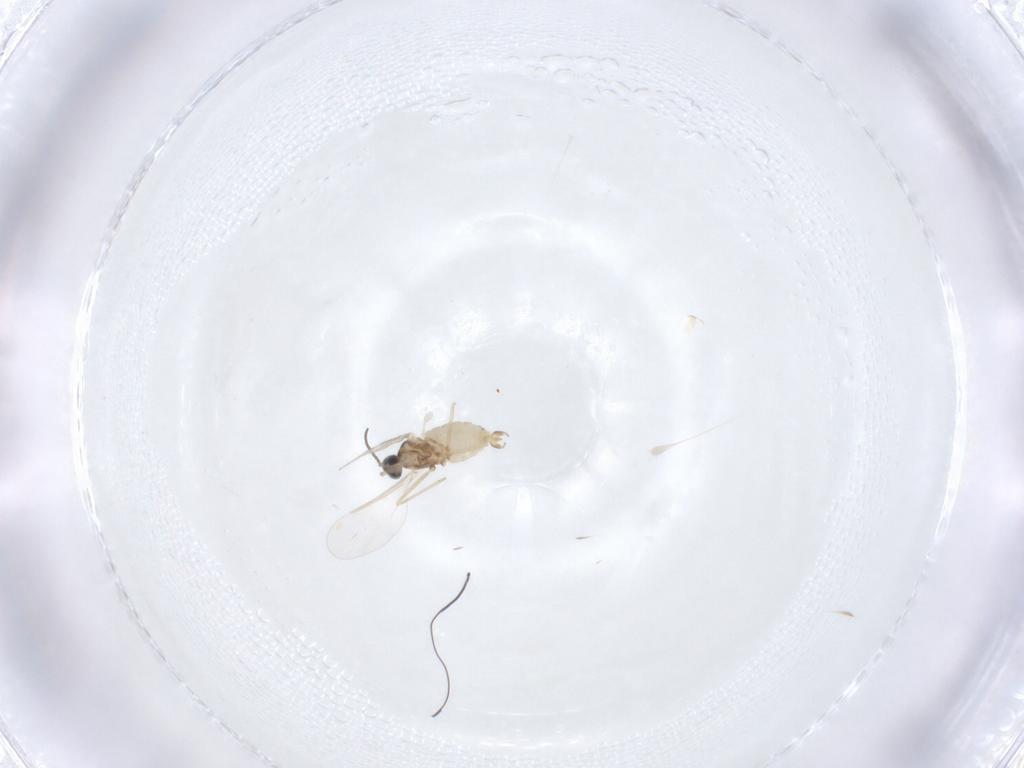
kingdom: Animalia
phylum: Arthropoda
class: Insecta
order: Diptera
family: Cecidomyiidae
